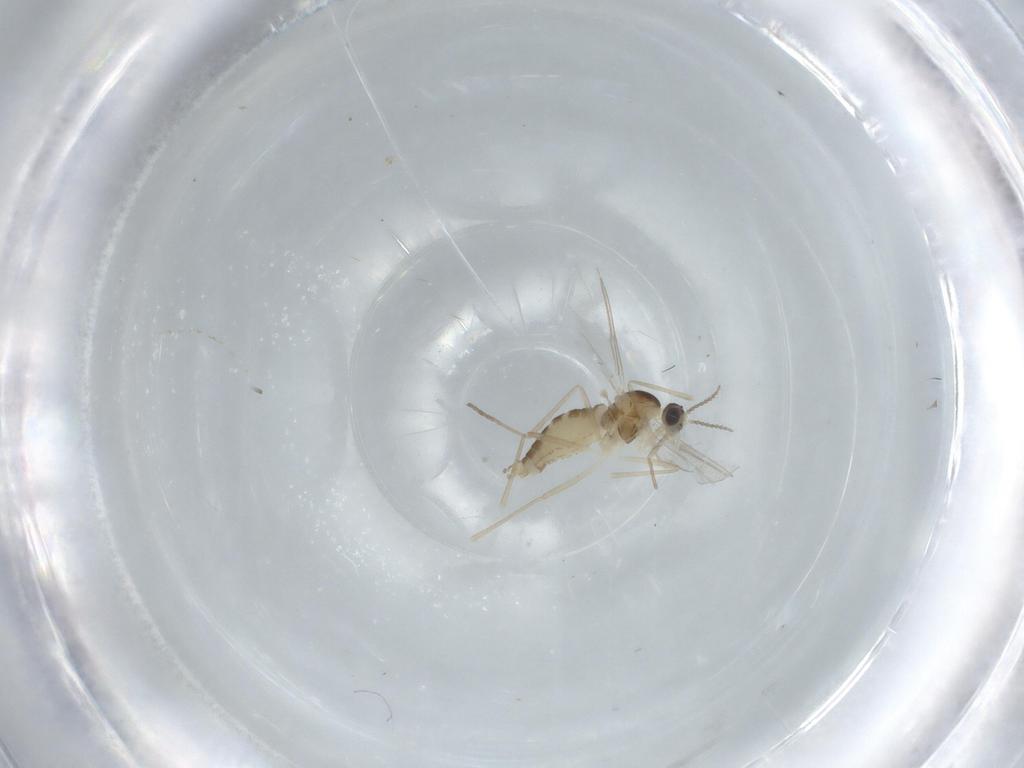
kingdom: Animalia
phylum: Arthropoda
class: Insecta
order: Diptera
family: Cecidomyiidae
